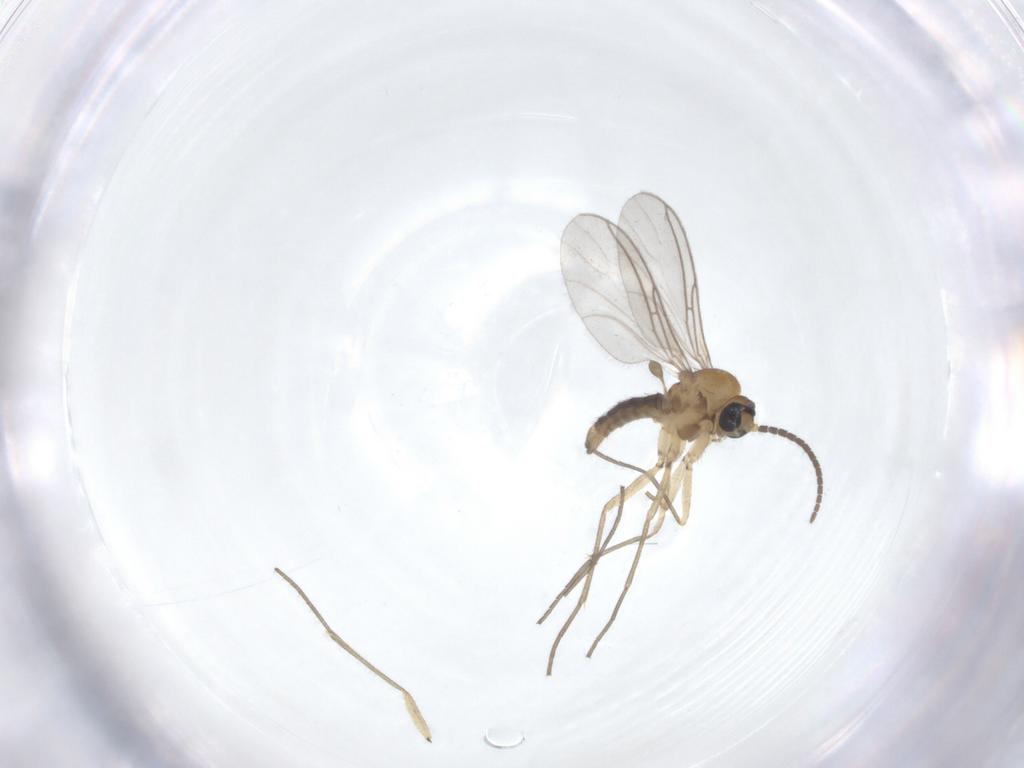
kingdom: Animalia
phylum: Arthropoda
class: Insecta
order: Diptera
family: Sciaridae
